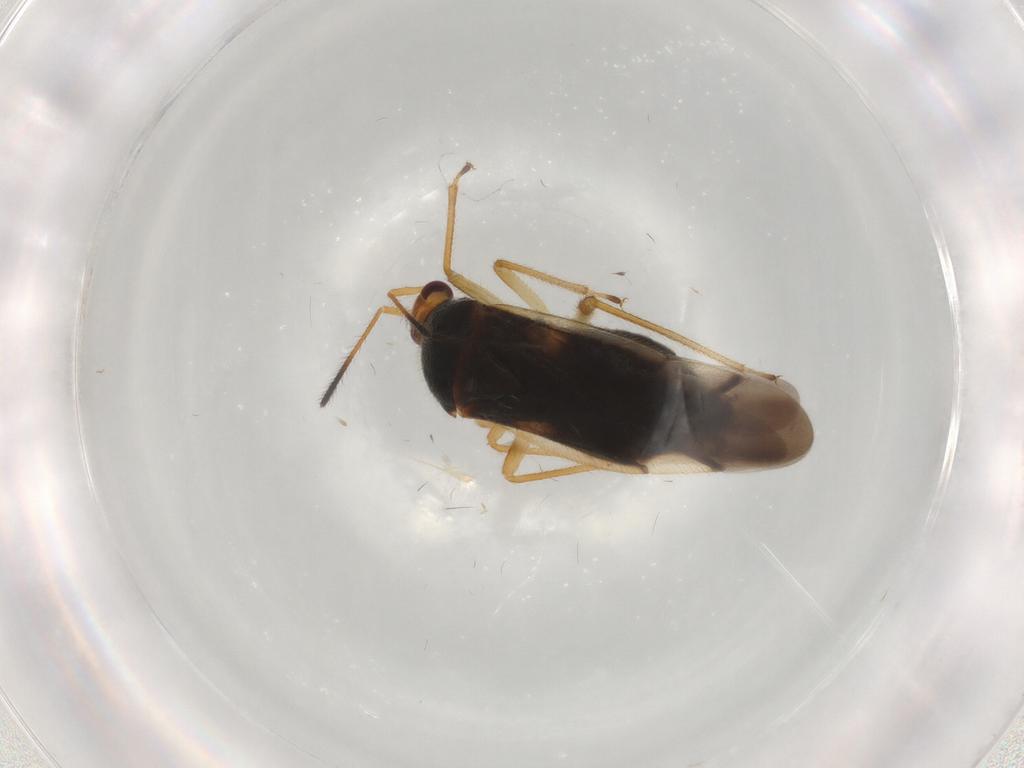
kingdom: Animalia
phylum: Arthropoda
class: Insecta
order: Hemiptera
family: Miridae
